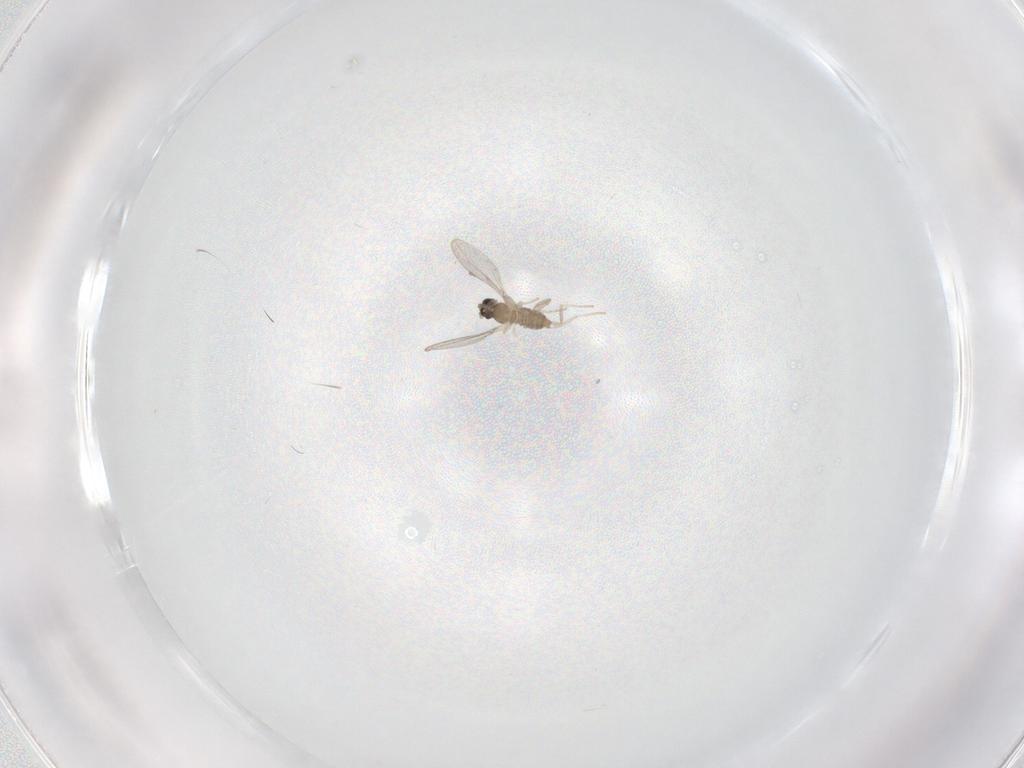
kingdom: Animalia
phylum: Arthropoda
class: Insecta
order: Diptera
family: Cecidomyiidae
